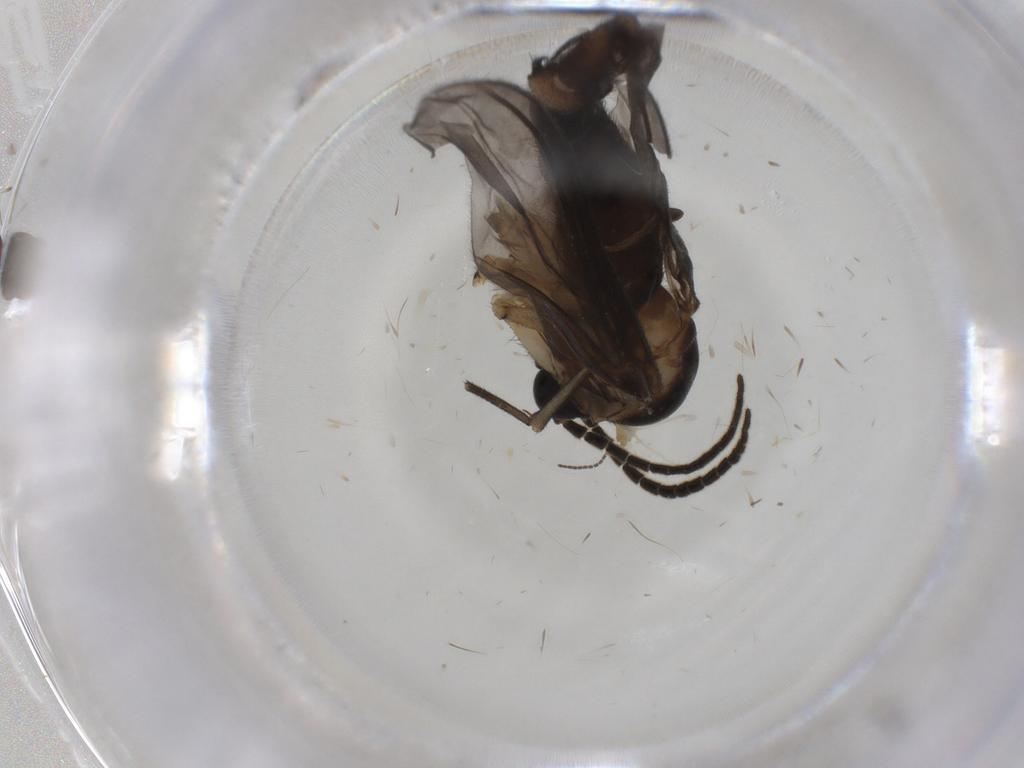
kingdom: Animalia
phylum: Arthropoda
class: Insecta
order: Diptera
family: Sciaridae
